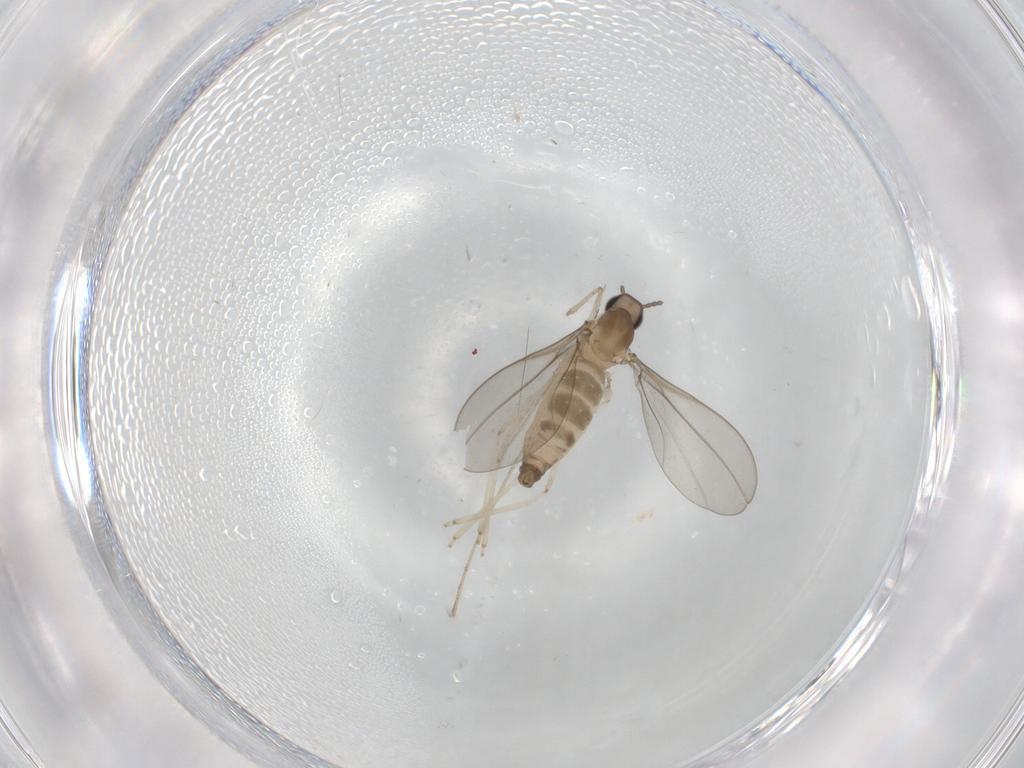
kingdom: Animalia
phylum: Arthropoda
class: Insecta
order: Diptera
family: Cecidomyiidae
